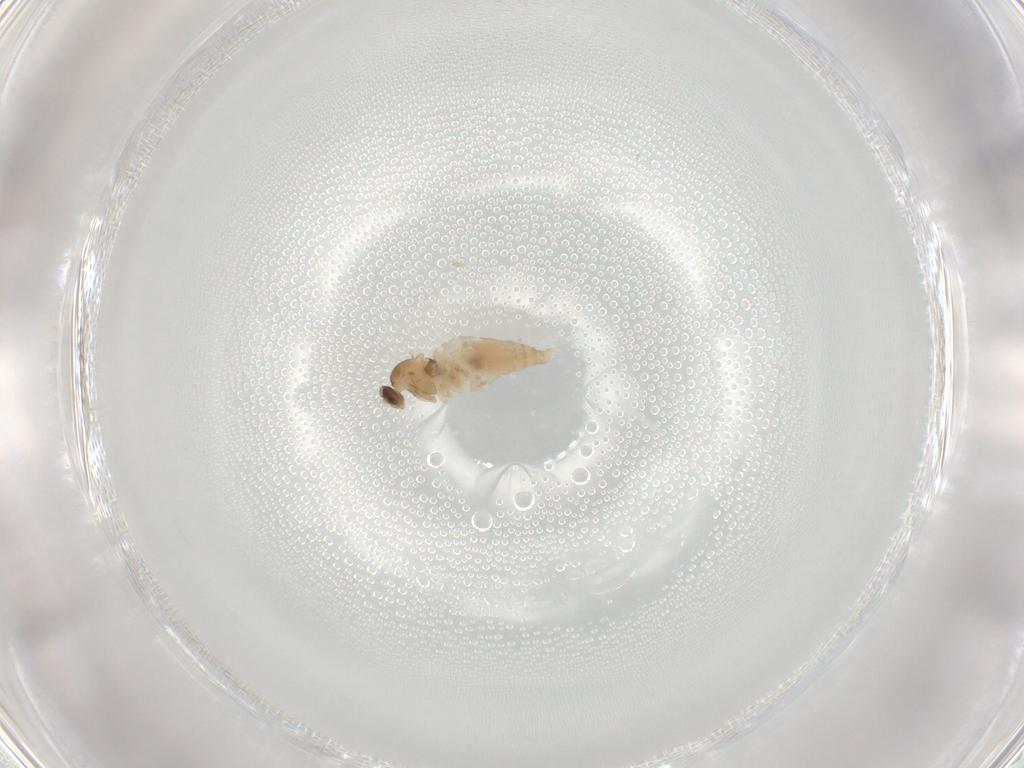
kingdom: Animalia
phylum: Arthropoda
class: Insecta
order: Diptera
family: Cecidomyiidae
